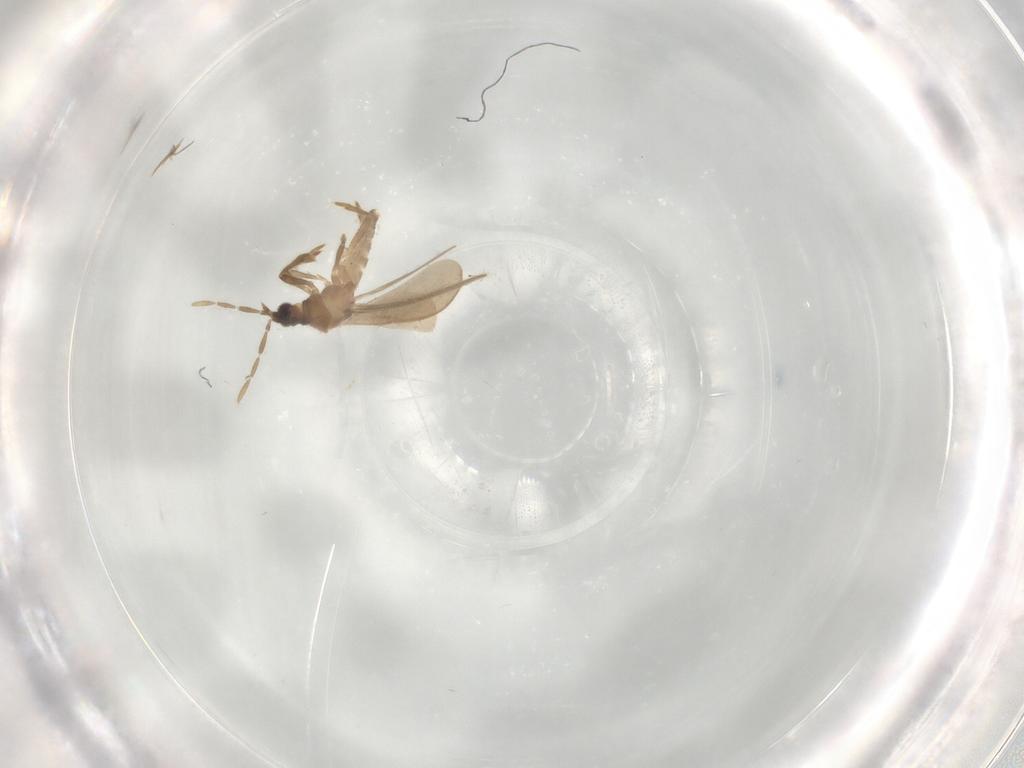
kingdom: Animalia
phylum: Arthropoda
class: Insecta
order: Hemiptera
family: Enicocephalidae
